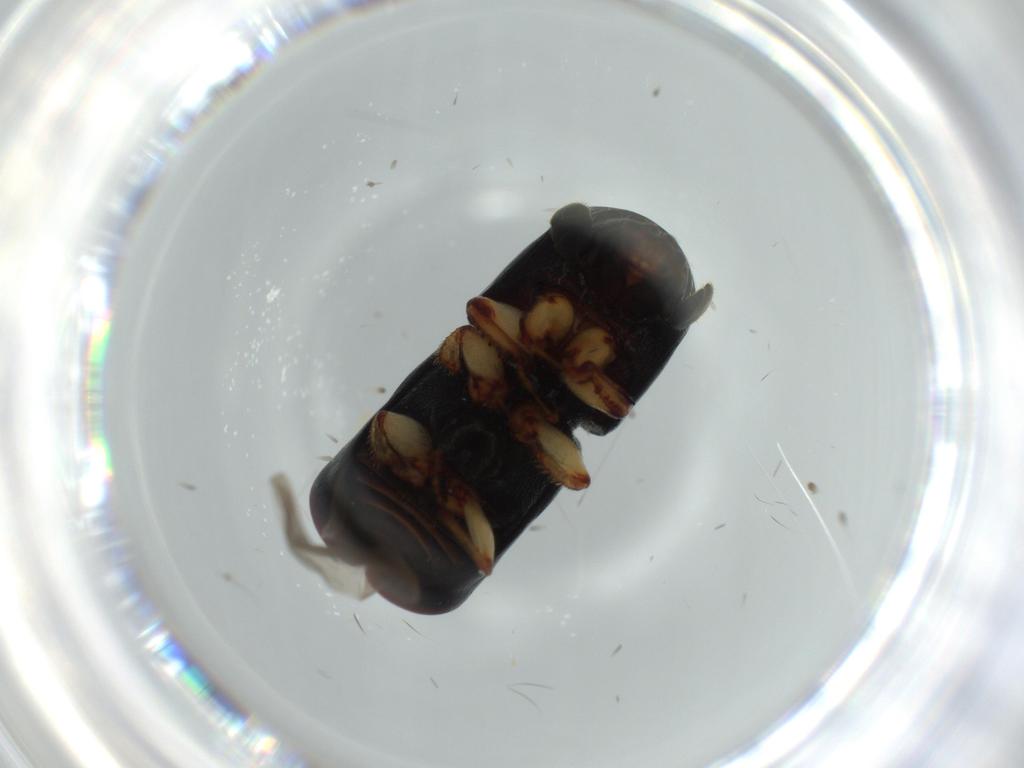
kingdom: Animalia
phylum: Arthropoda
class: Insecta
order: Coleoptera
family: Curculionidae
